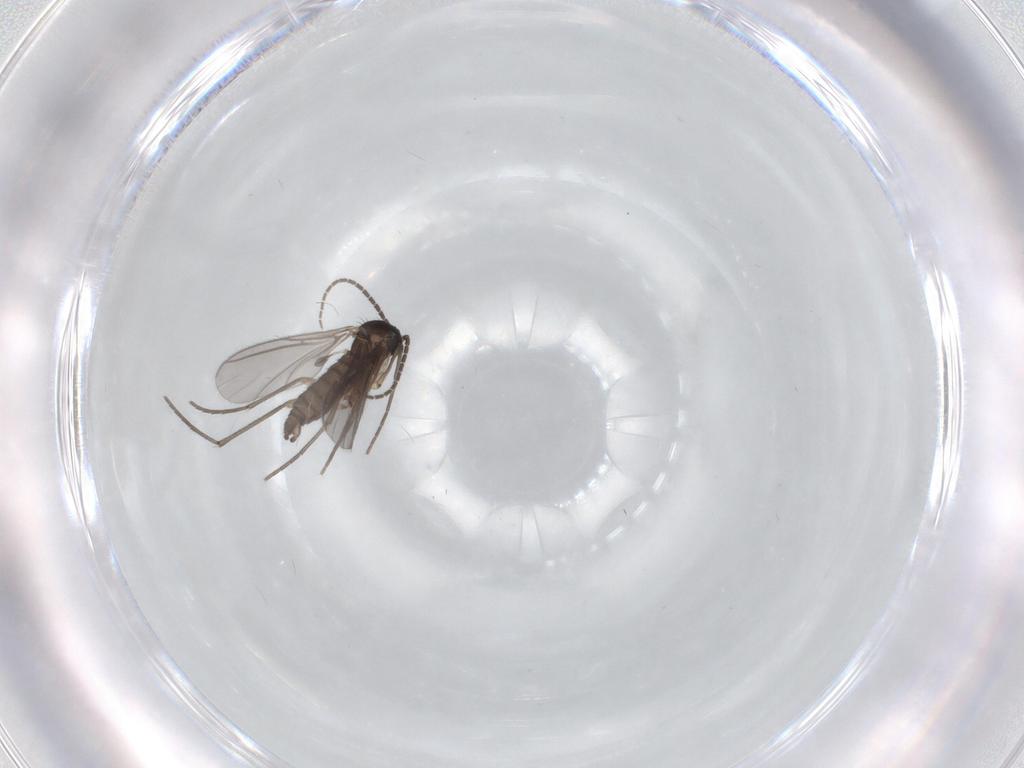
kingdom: Animalia
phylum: Arthropoda
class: Insecta
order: Diptera
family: Sciaridae
